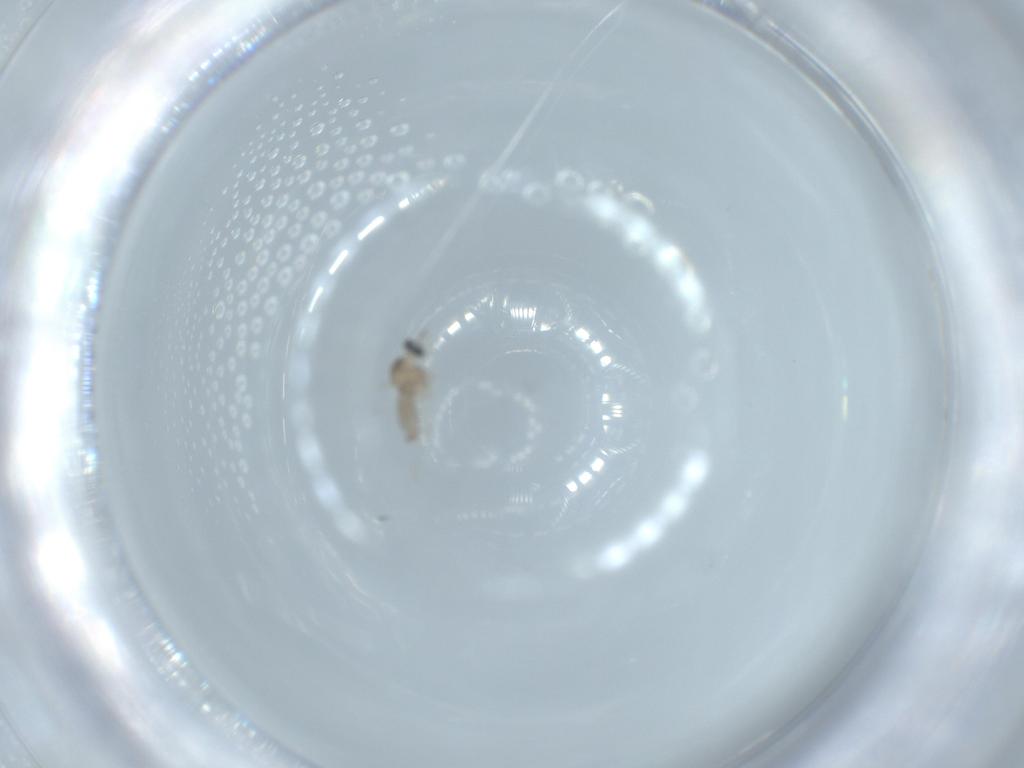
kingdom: Animalia
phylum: Arthropoda
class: Insecta
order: Diptera
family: Cecidomyiidae
